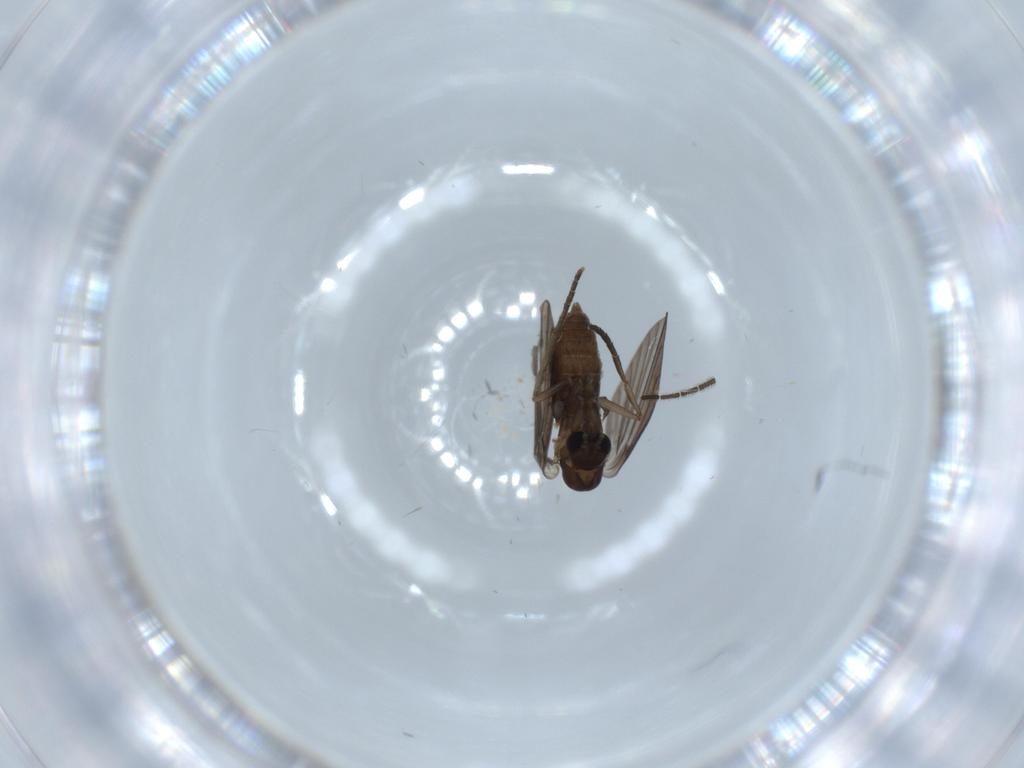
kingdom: Animalia
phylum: Arthropoda
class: Insecta
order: Diptera
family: Psychodidae
